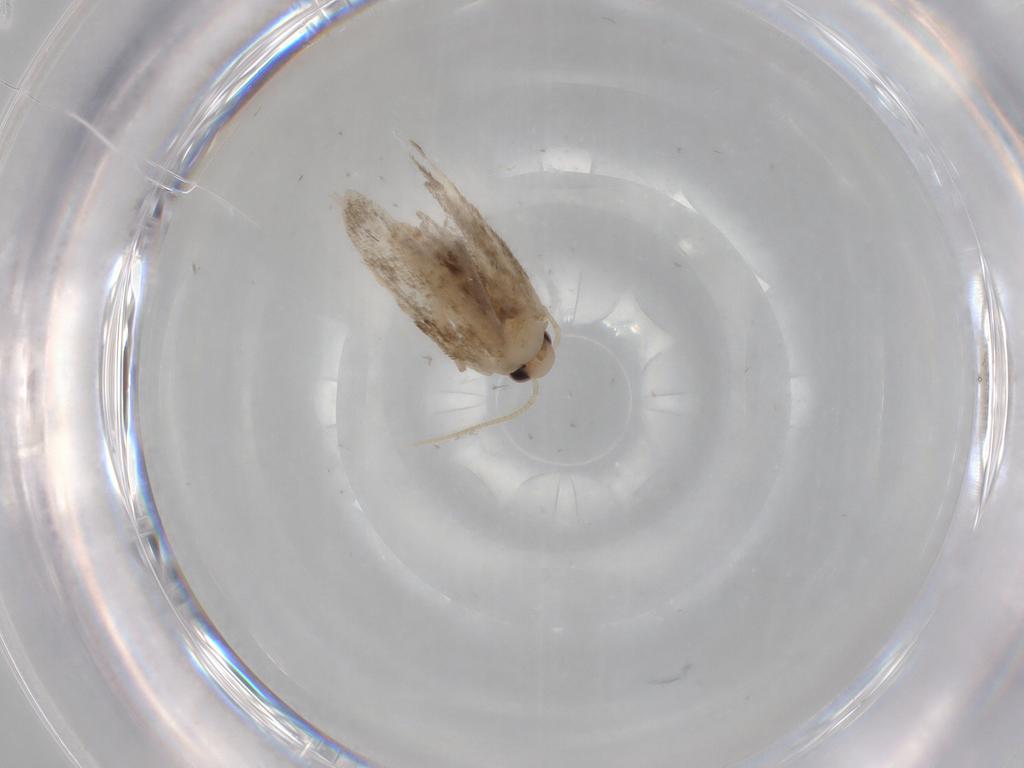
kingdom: Animalia
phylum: Arthropoda
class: Insecta
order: Lepidoptera
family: Psychidae
